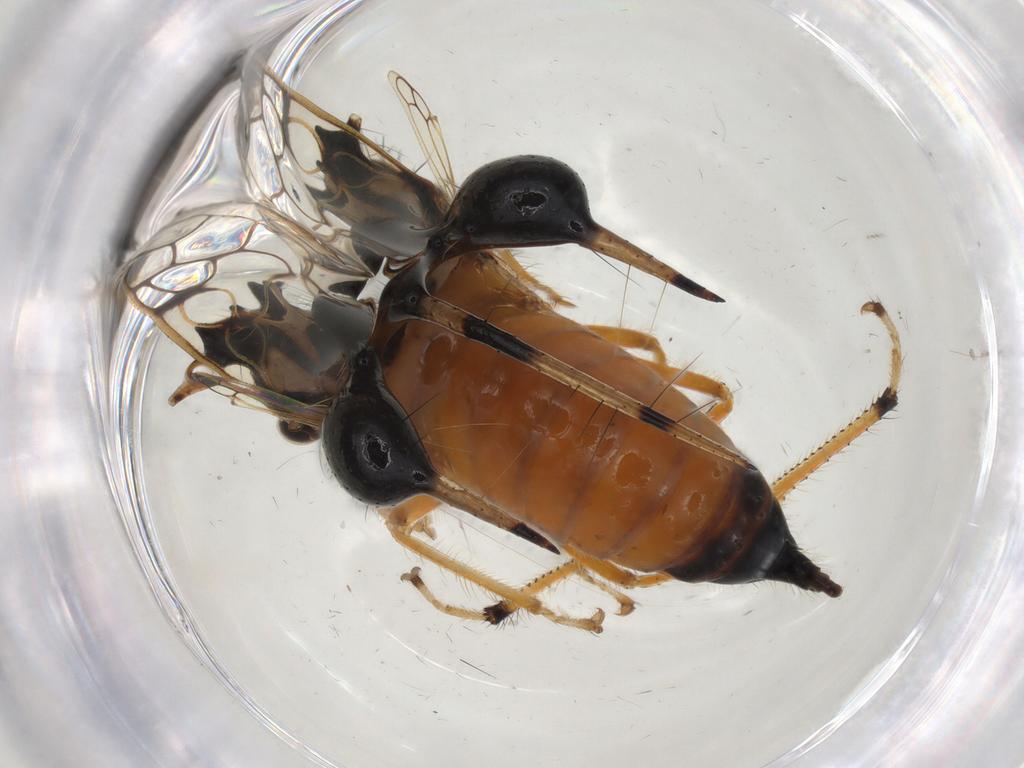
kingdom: Animalia
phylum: Arthropoda
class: Insecta
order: Hemiptera
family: Membracidae
